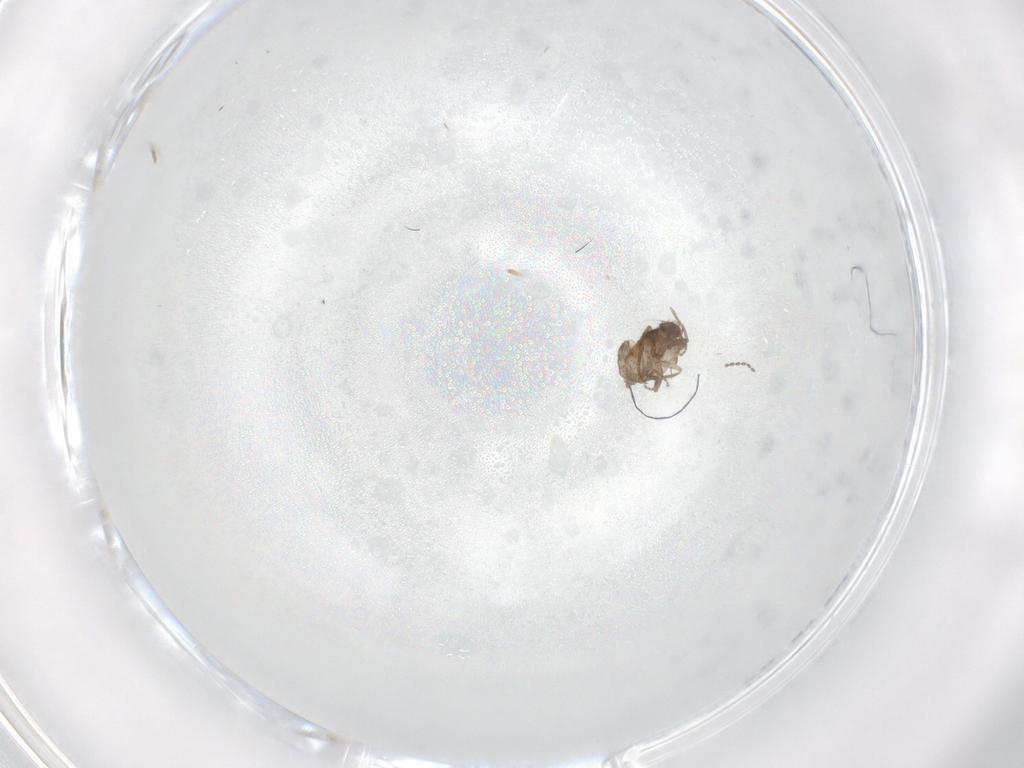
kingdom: Animalia
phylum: Arthropoda
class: Insecta
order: Diptera
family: Phoridae
